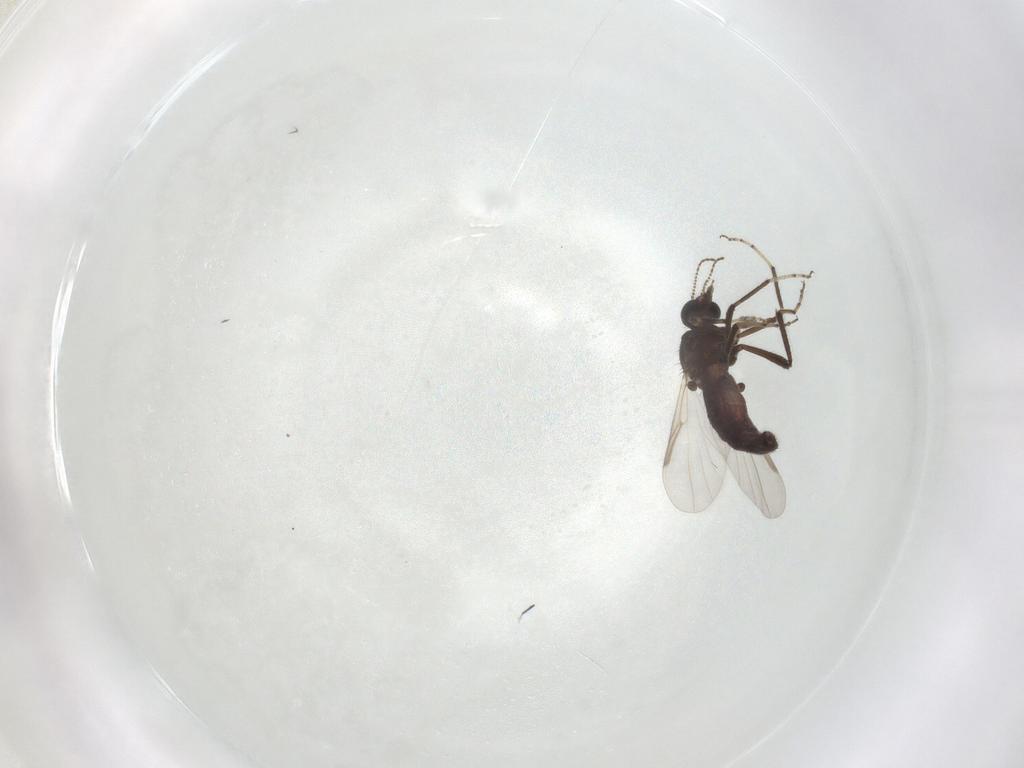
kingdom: Animalia
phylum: Arthropoda
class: Insecta
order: Diptera
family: Ceratopogonidae
